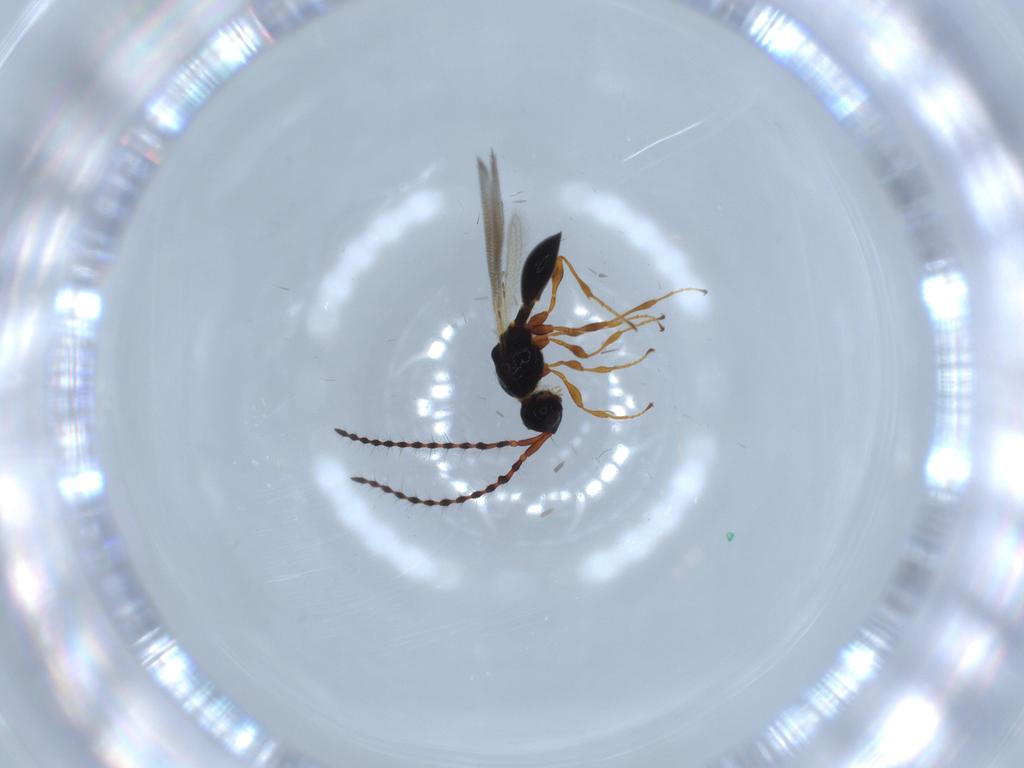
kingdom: Animalia
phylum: Arthropoda
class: Insecta
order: Hymenoptera
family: Diapriidae
